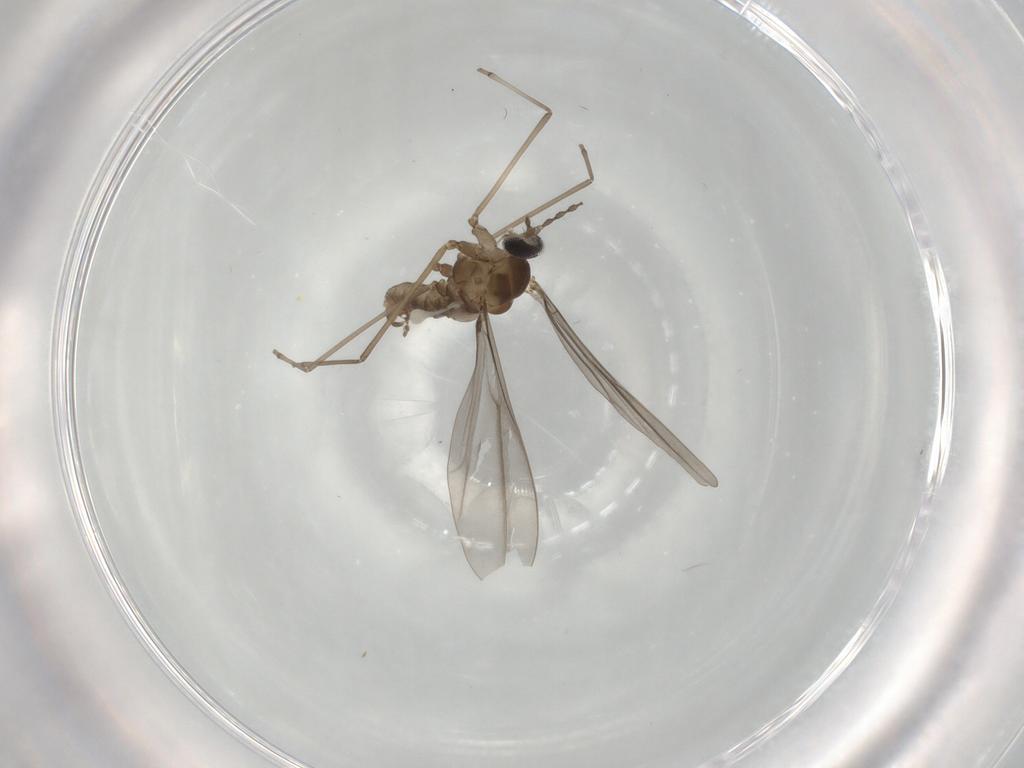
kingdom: Animalia
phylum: Arthropoda
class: Insecta
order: Diptera
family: Cecidomyiidae
